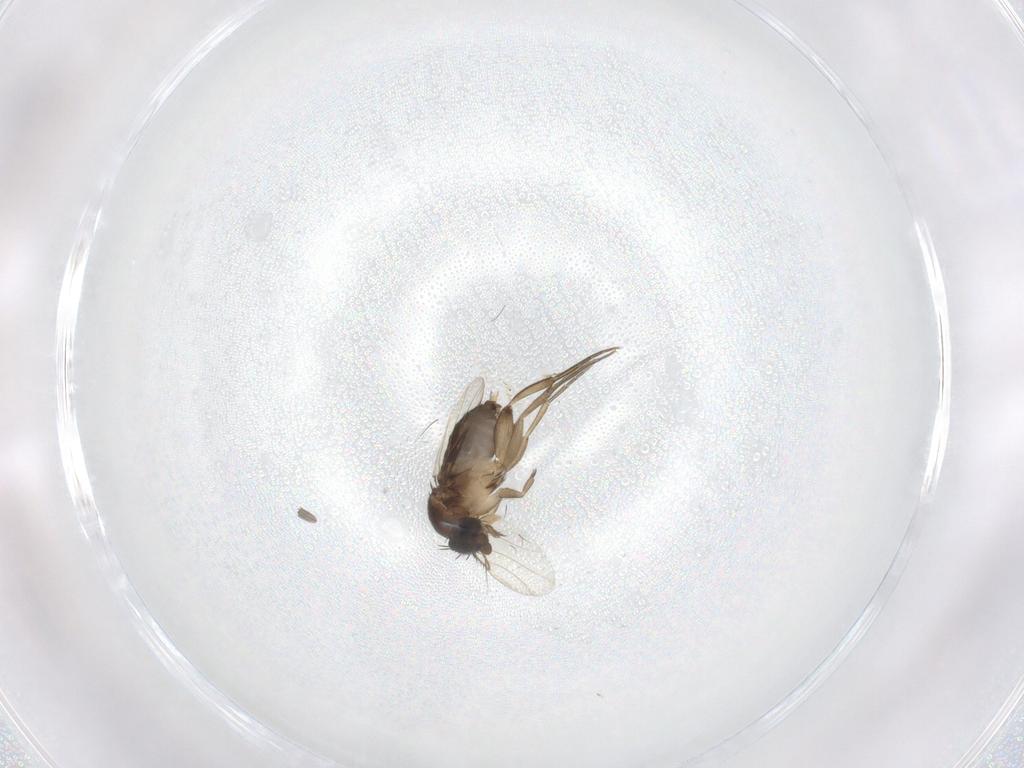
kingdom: Animalia
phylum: Arthropoda
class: Insecta
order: Diptera
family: Phoridae
